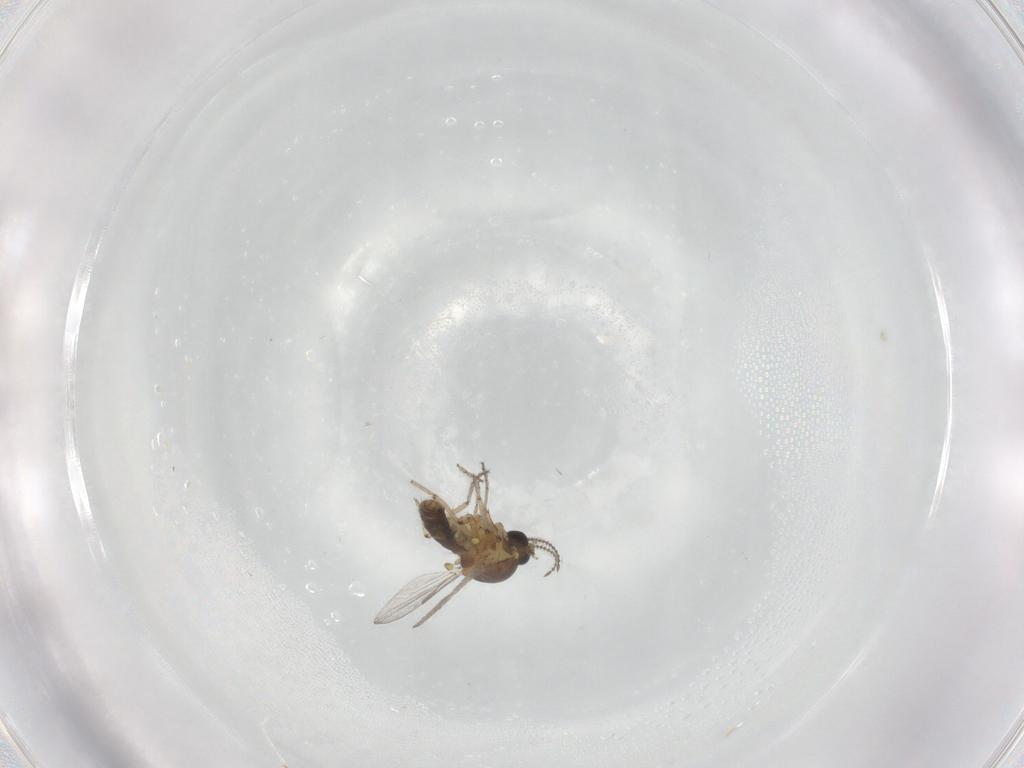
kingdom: Animalia
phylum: Arthropoda
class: Insecta
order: Diptera
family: Ceratopogonidae
